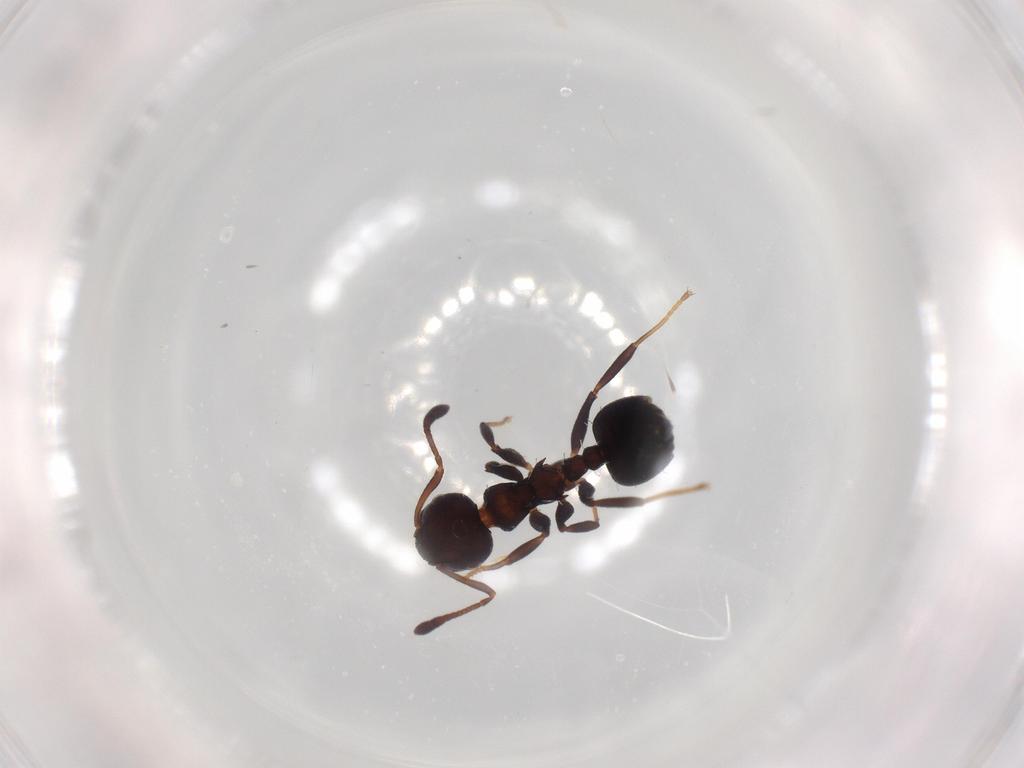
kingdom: Animalia
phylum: Arthropoda
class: Insecta
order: Hymenoptera
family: Formicidae
